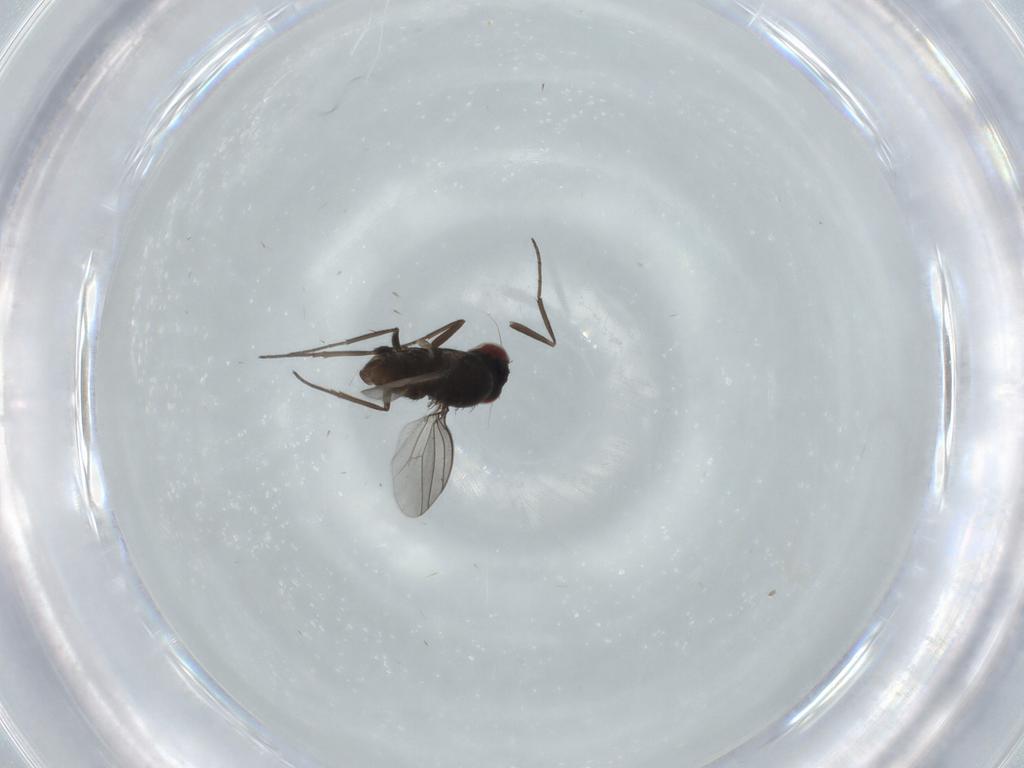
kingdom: Animalia
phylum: Arthropoda
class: Insecta
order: Diptera
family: Dolichopodidae
